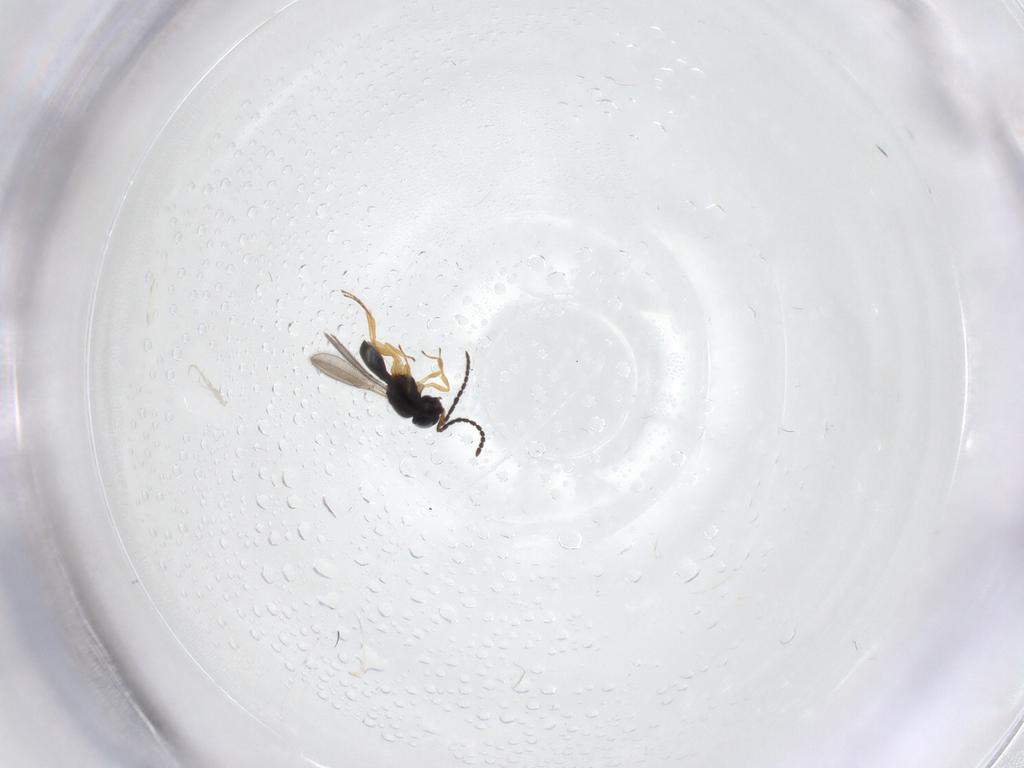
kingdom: Animalia
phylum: Arthropoda
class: Insecta
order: Hymenoptera
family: Scelionidae
